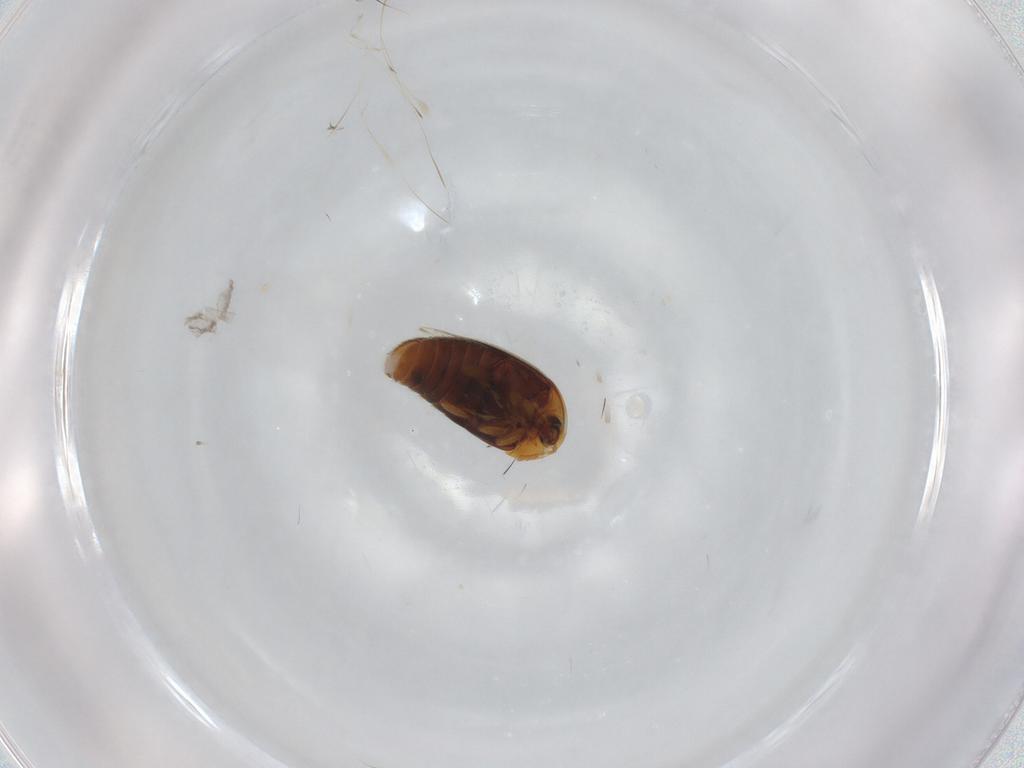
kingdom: Animalia
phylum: Arthropoda
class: Insecta
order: Coleoptera
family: Corylophidae
